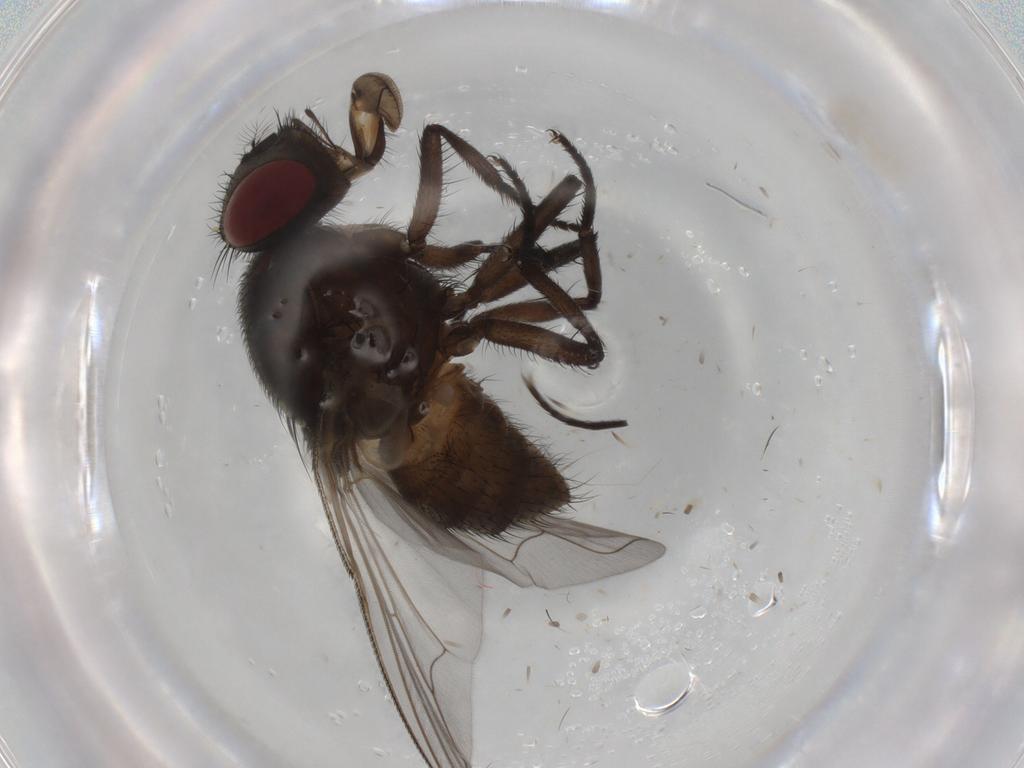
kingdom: Animalia
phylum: Arthropoda
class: Insecta
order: Diptera
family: Muscidae
